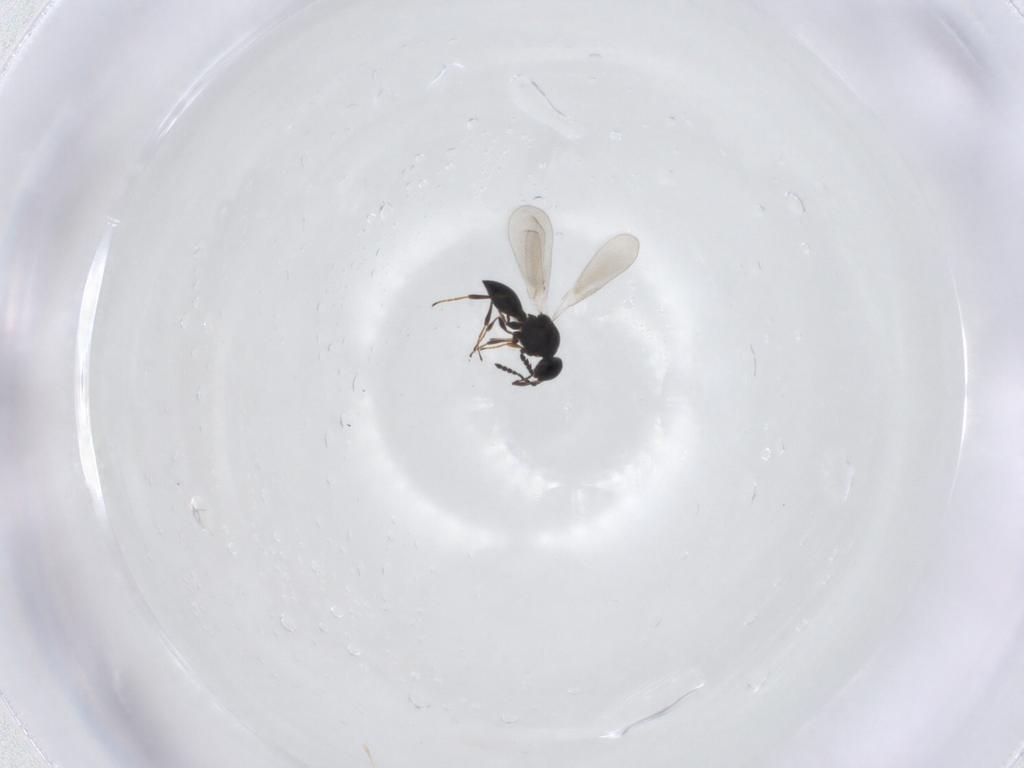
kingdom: Animalia
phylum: Arthropoda
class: Insecta
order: Hymenoptera
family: Platygastridae
